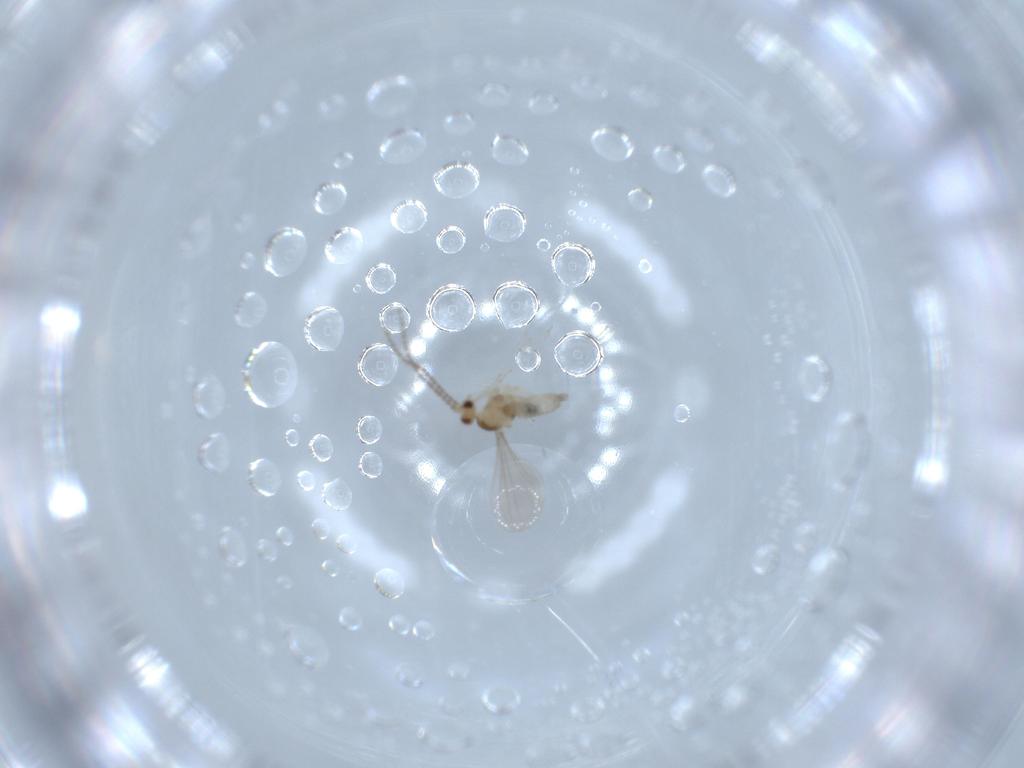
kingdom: Animalia
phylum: Arthropoda
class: Insecta
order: Diptera
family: Cecidomyiidae
